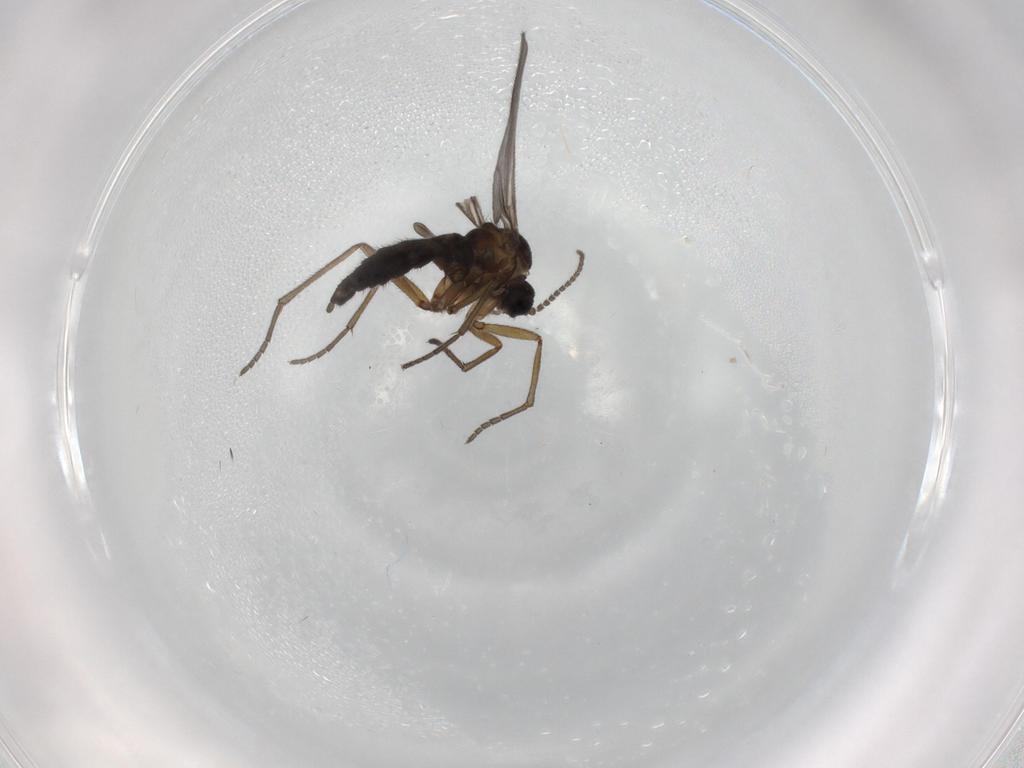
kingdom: Animalia
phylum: Arthropoda
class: Insecta
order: Diptera
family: Sciaridae
